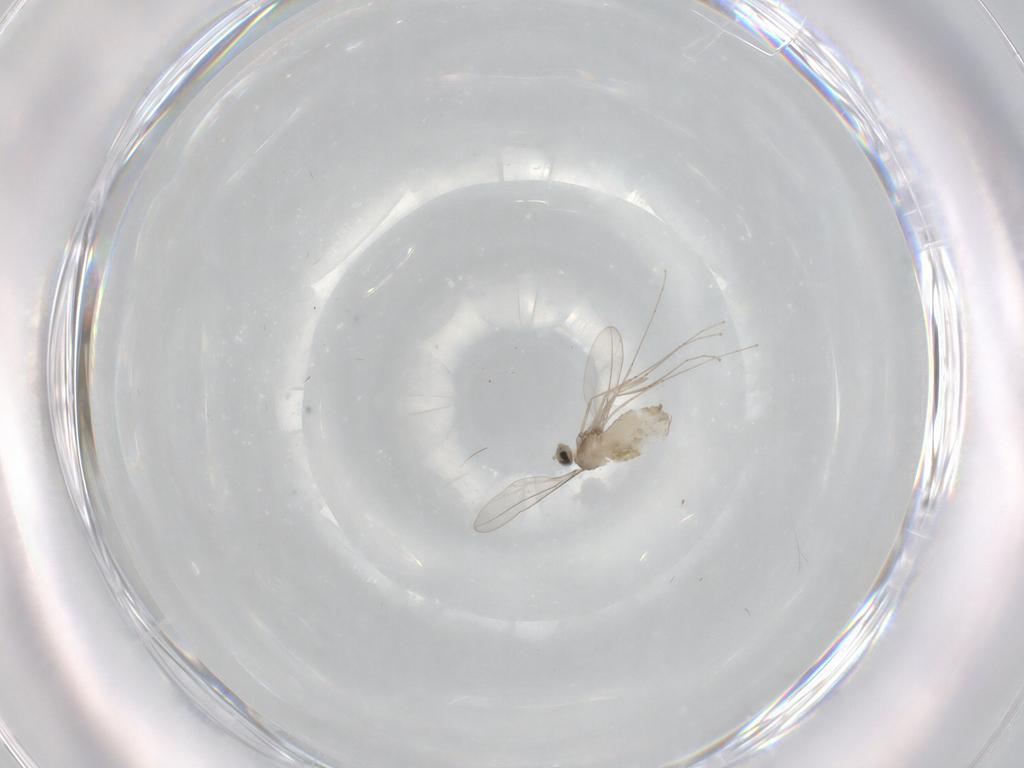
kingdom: Animalia
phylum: Arthropoda
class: Insecta
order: Diptera
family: Cecidomyiidae
